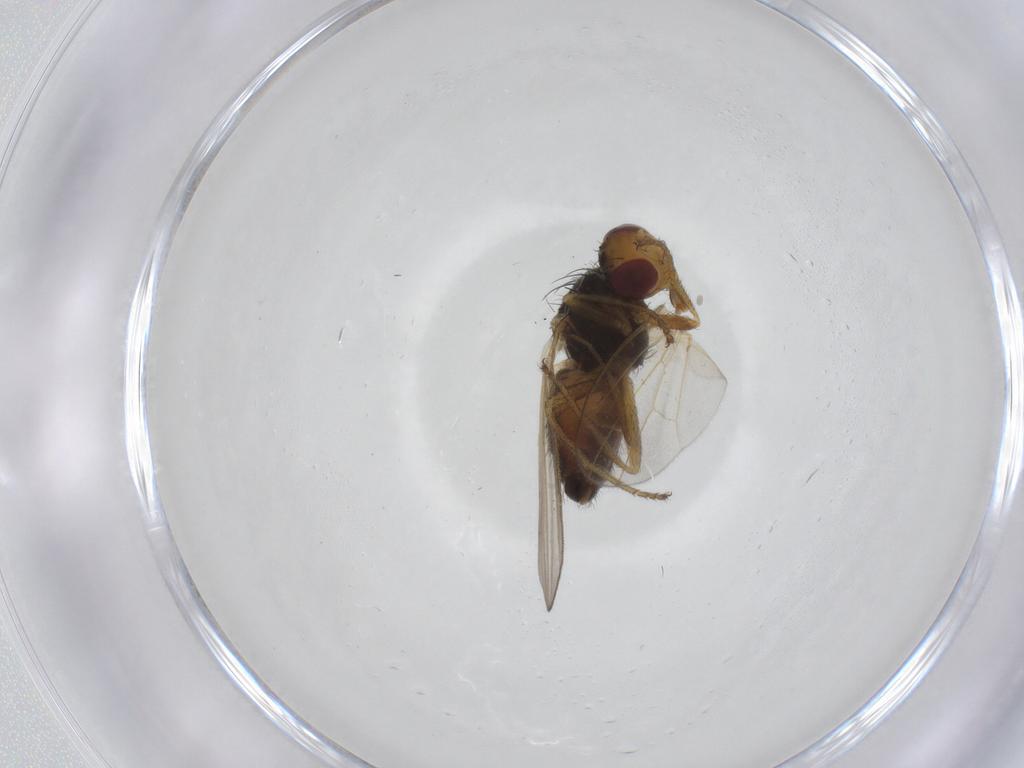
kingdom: Animalia
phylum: Arthropoda
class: Insecta
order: Diptera
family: Heleomyzidae
